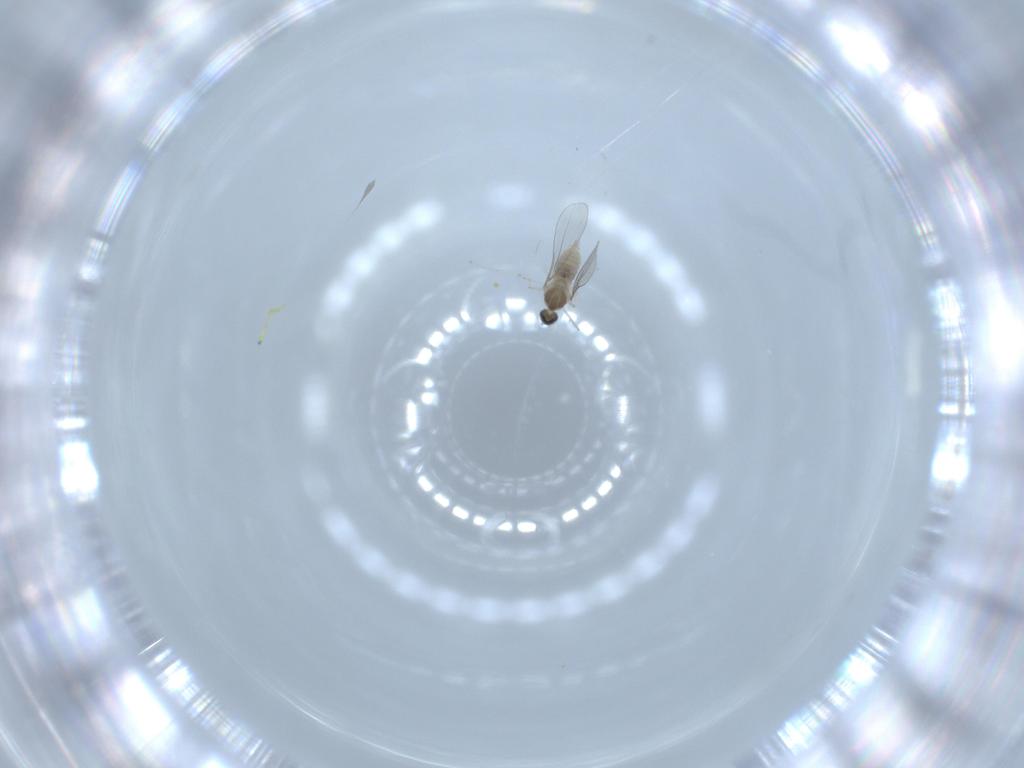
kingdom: Animalia
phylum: Arthropoda
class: Insecta
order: Diptera
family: Cecidomyiidae
